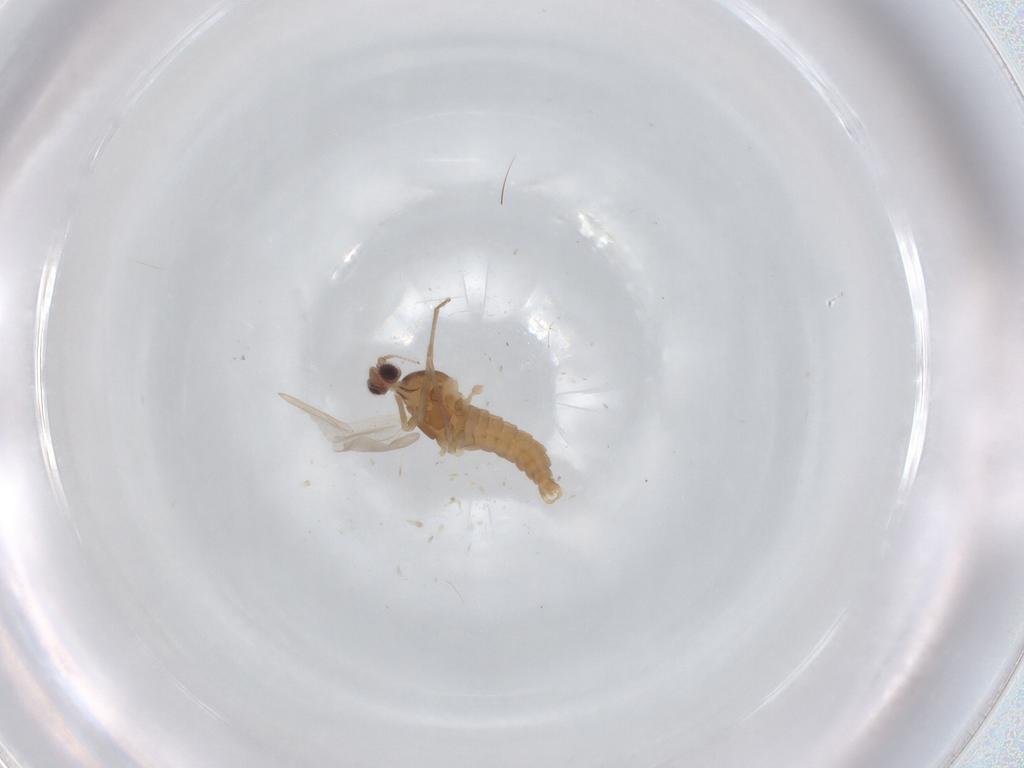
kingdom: Animalia
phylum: Arthropoda
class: Insecta
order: Diptera
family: Cecidomyiidae
